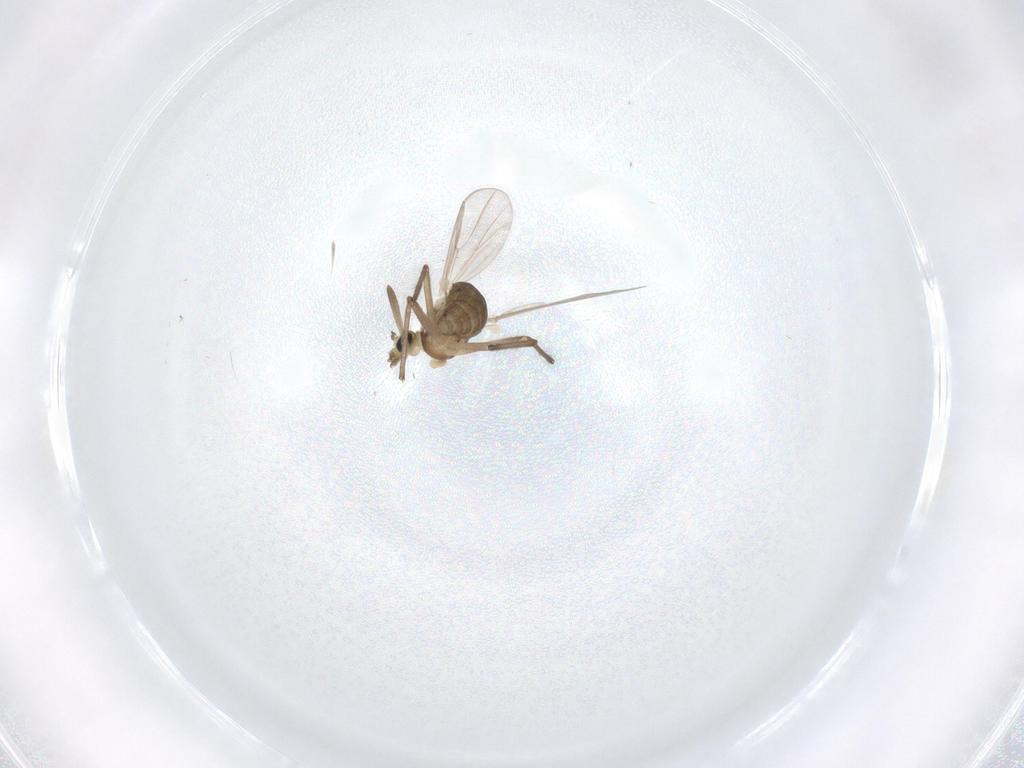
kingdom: Animalia
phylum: Arthropoda
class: Insecta
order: Diptera
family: Chironomidae
